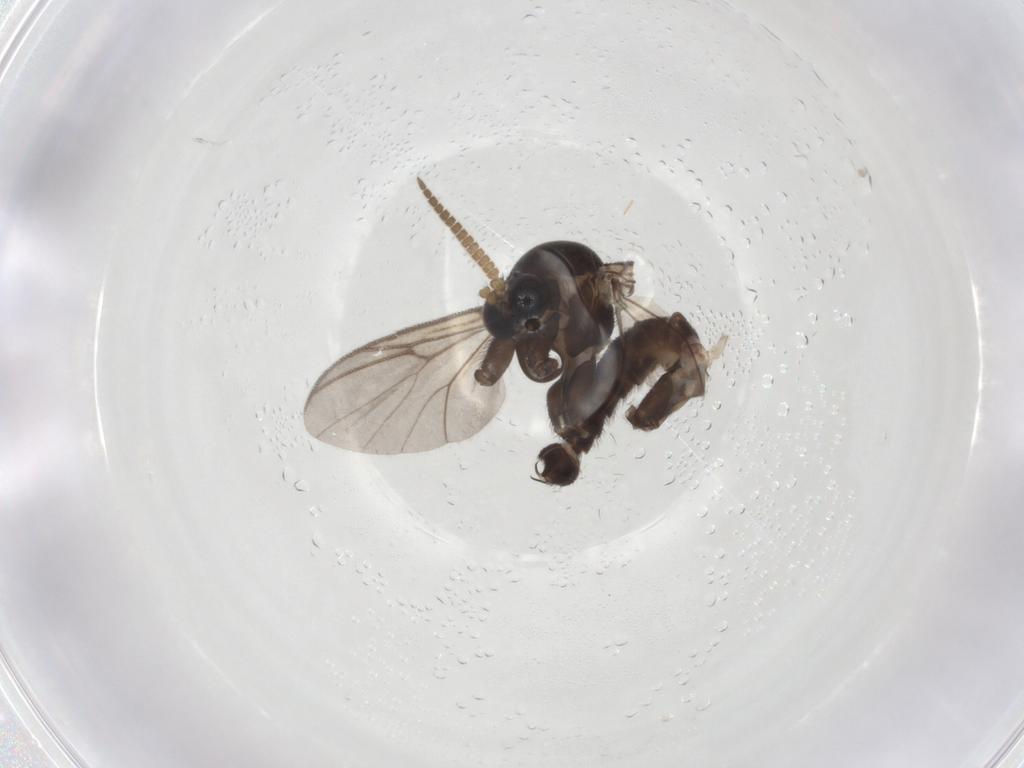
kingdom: Animalia
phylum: Arthropoda
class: Insecta
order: Diptera
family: Mycetophilidae
